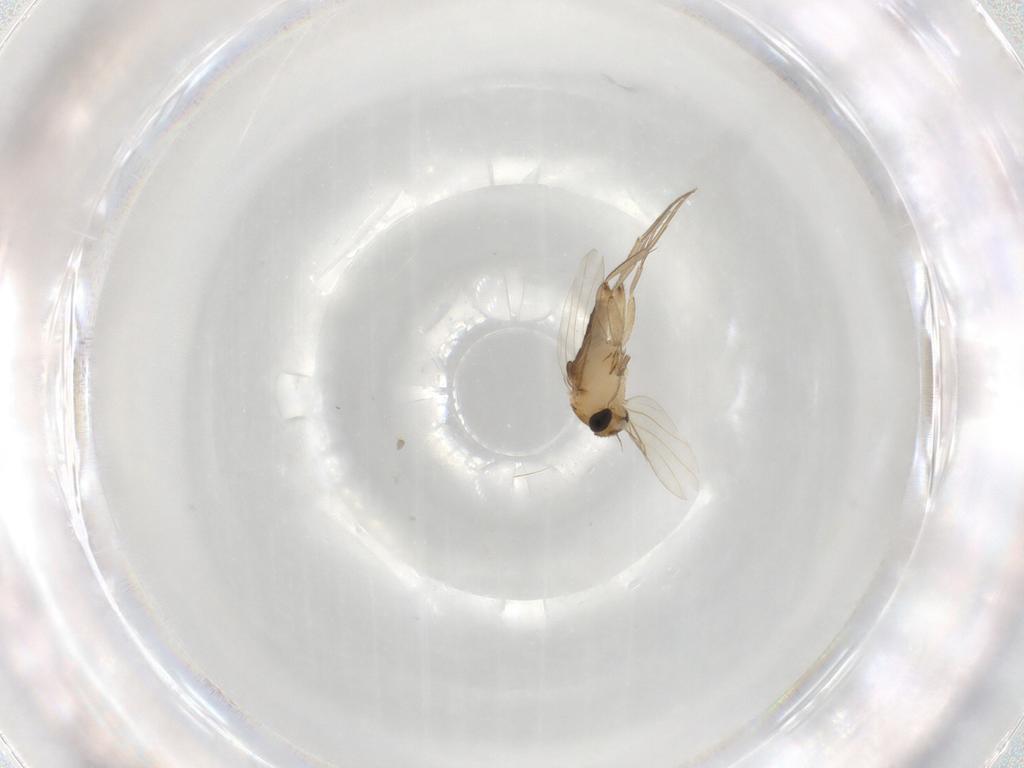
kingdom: Animalia
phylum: Arthropoda
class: Insecta
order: Diptera
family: Phoridae
